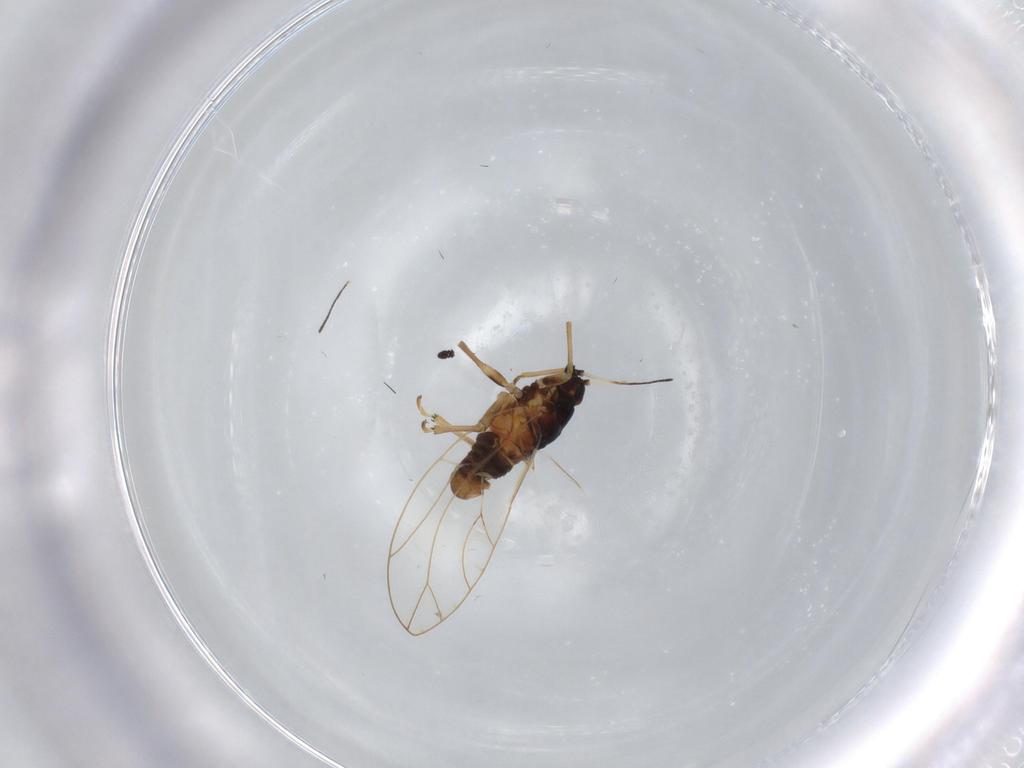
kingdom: Animalia
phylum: Arthropoda
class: Insecta
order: Hemiptera
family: Triozidae
